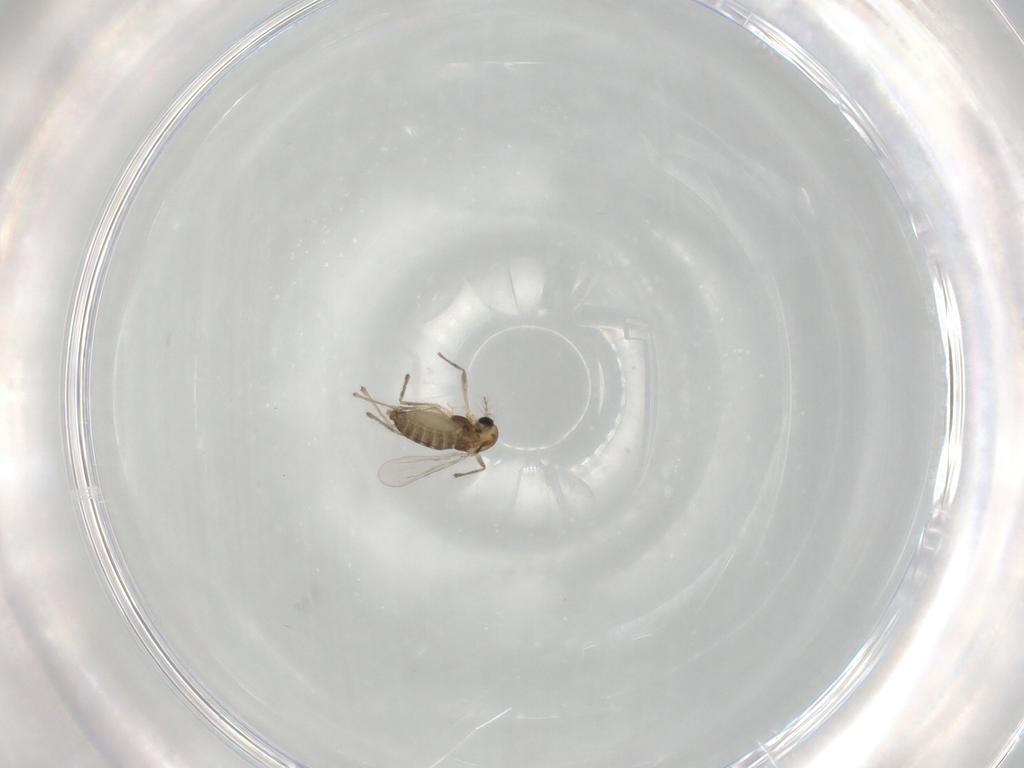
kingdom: Animalia
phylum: Arthropoda
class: Insecta
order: Diptera
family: Chironomidae
